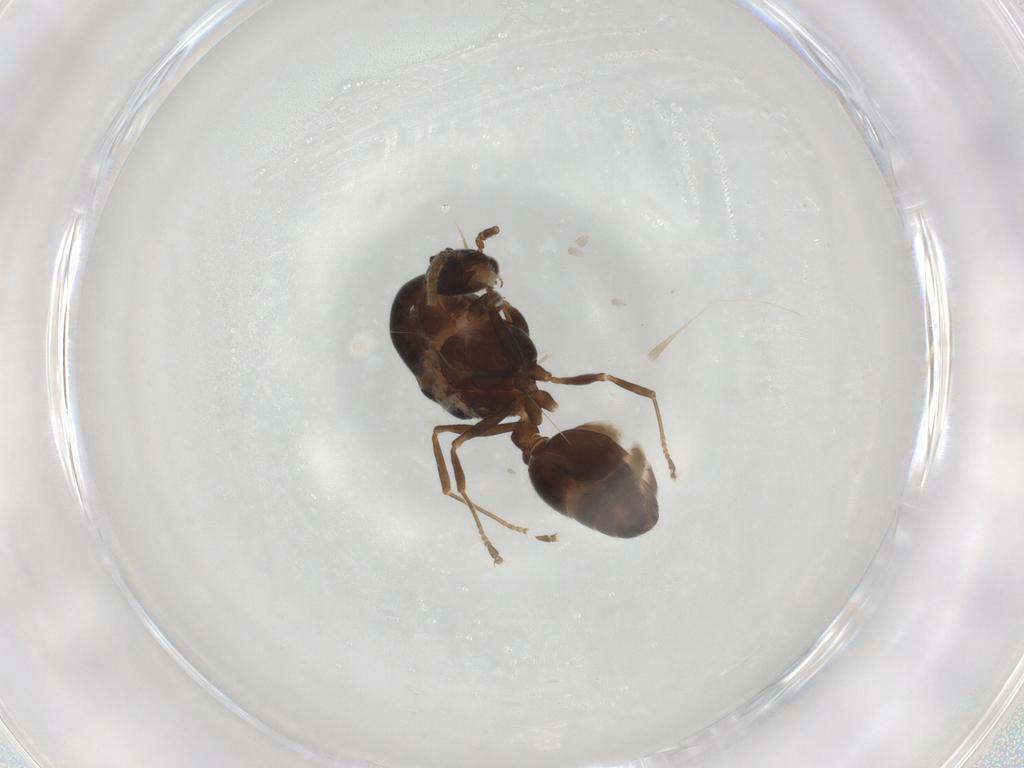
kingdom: Animalia
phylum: Arthropoda
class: Insecta
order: Hymenoptera
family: Formicidae
